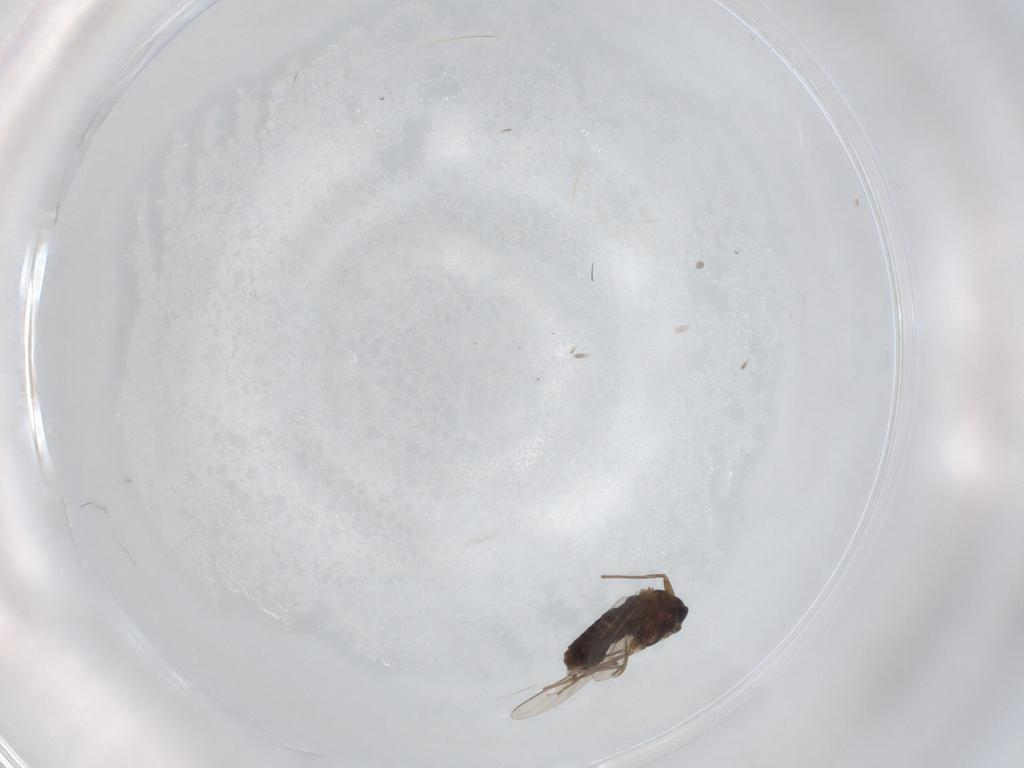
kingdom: Animalia
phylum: Arthropoda
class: Insecta
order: Diptera
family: Chironomidae
